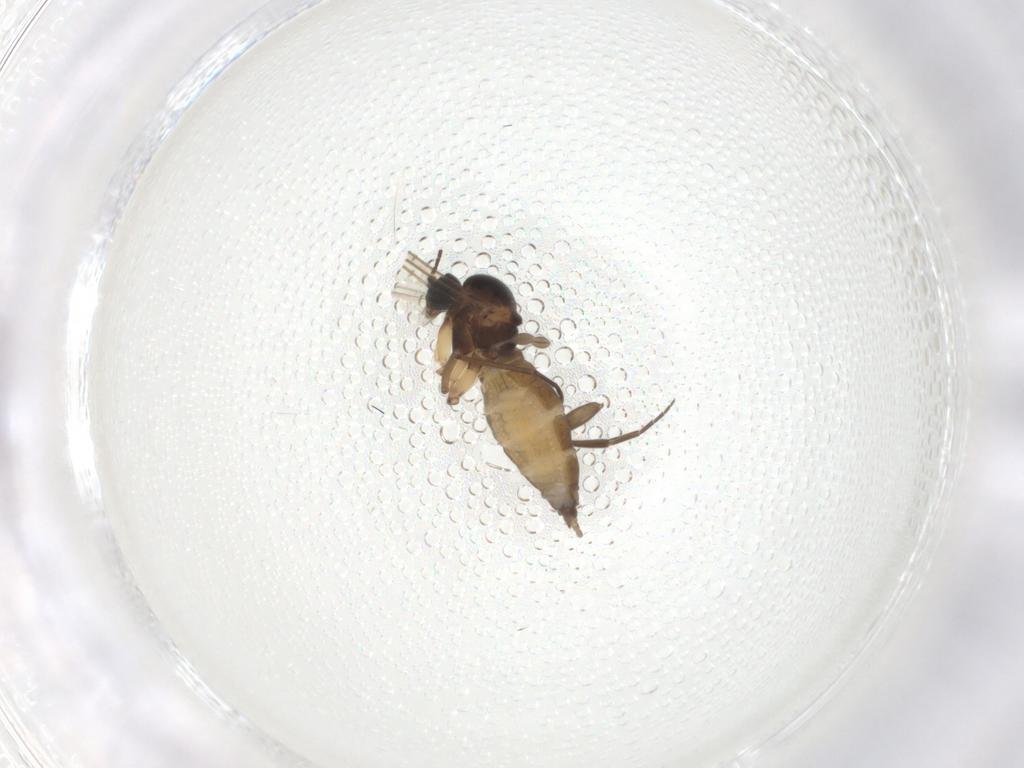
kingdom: Animalia
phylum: Arthropoda
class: Insecta
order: Diptera
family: Sciaridae
